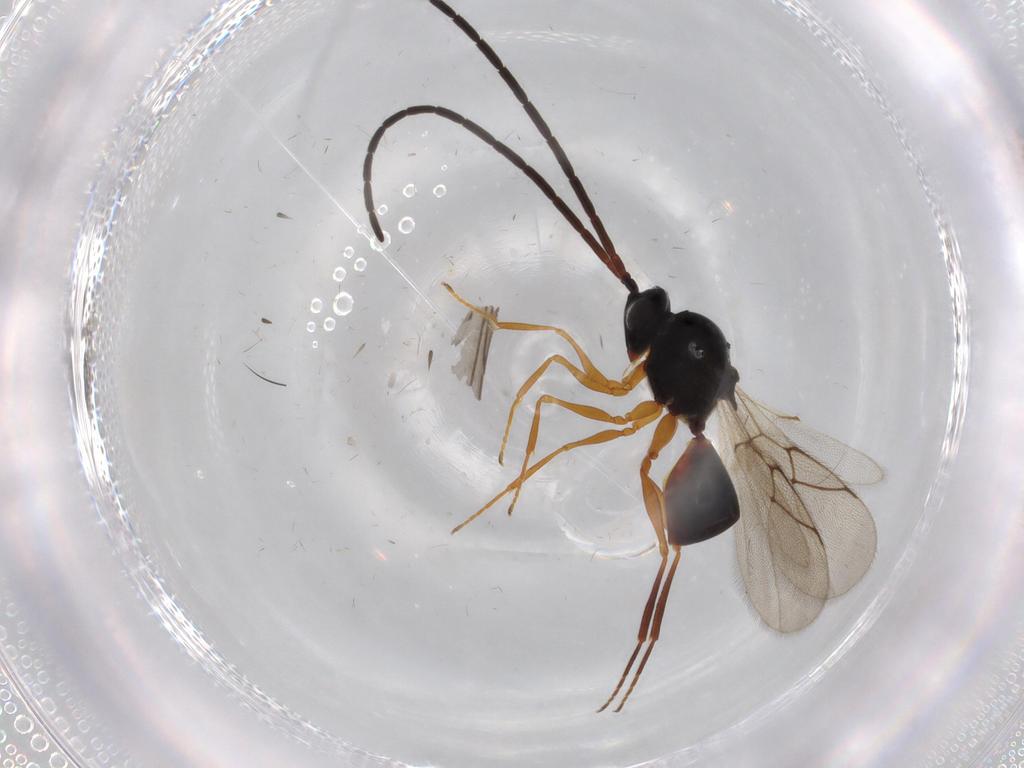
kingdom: Animalia
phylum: Arthropoda
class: Insecta
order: Hymenoptera
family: Figitidae
